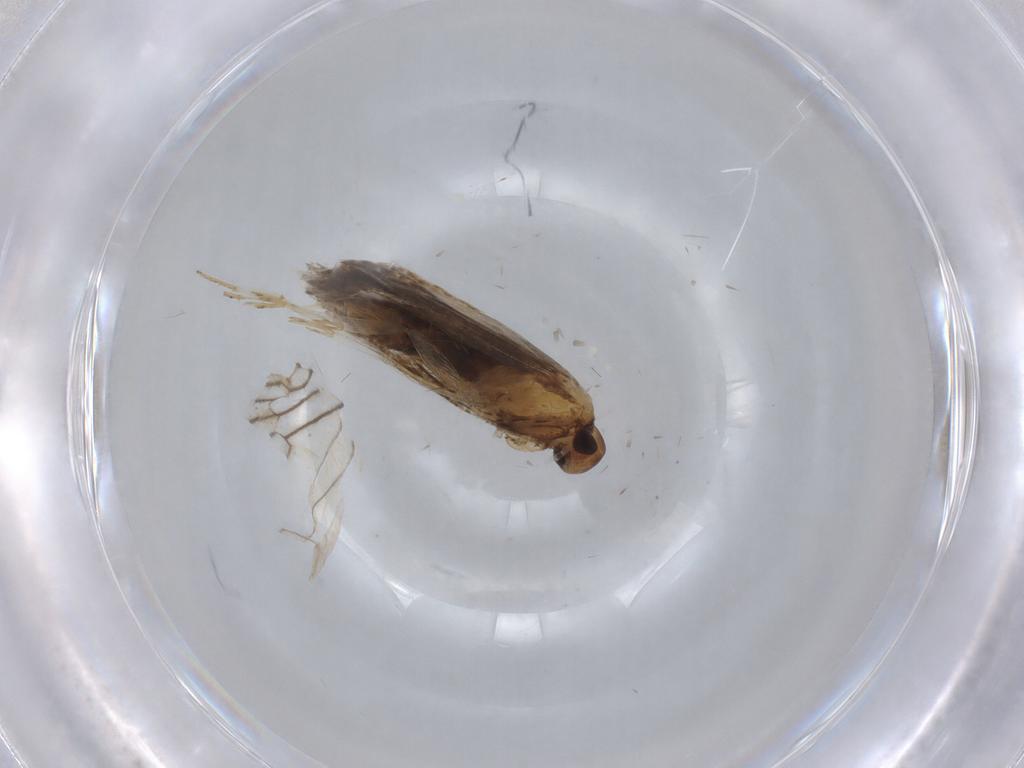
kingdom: Animalia
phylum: Arthropoda
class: Insecta
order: Lepidoptera
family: Oecophoridae
